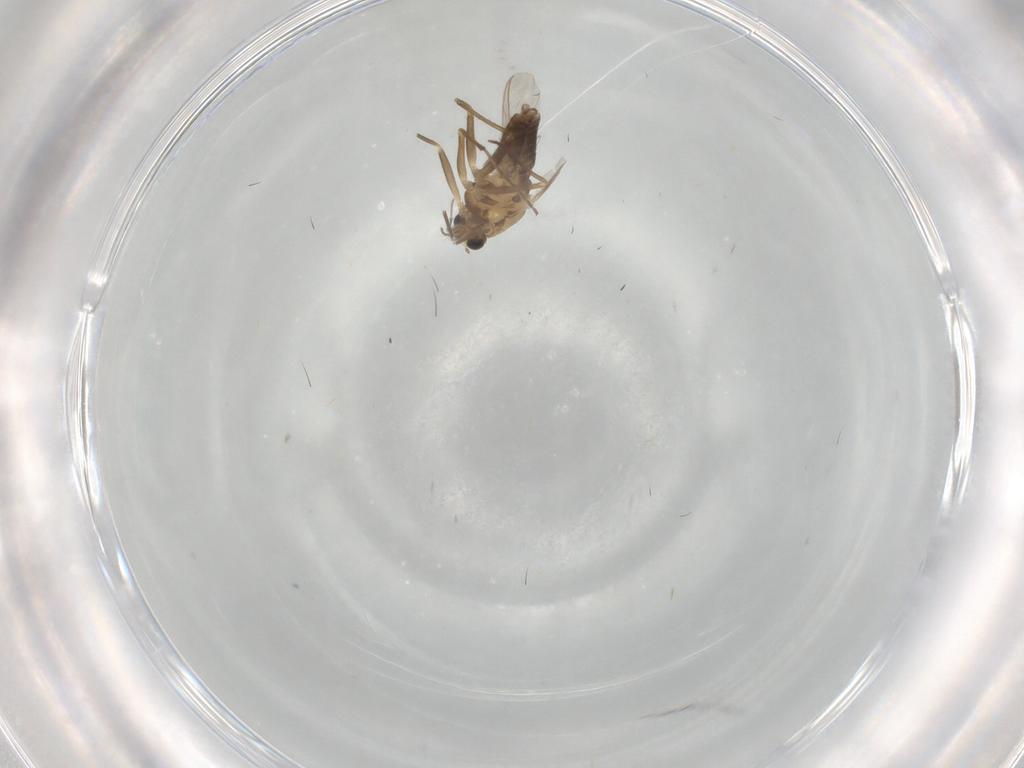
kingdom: Animalia
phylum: Arthropoda
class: Insecta
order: Diptera
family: Chironomidae
